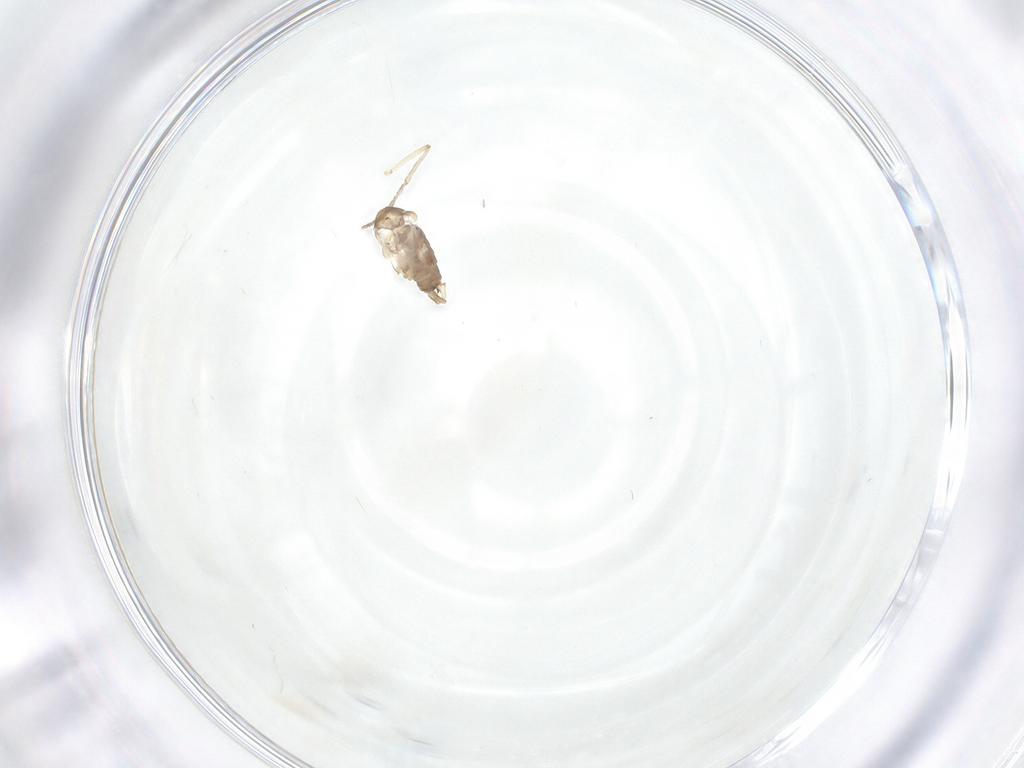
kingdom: Animalia
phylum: Arthropoda
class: Insecta
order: Diptera
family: Psychodidae
